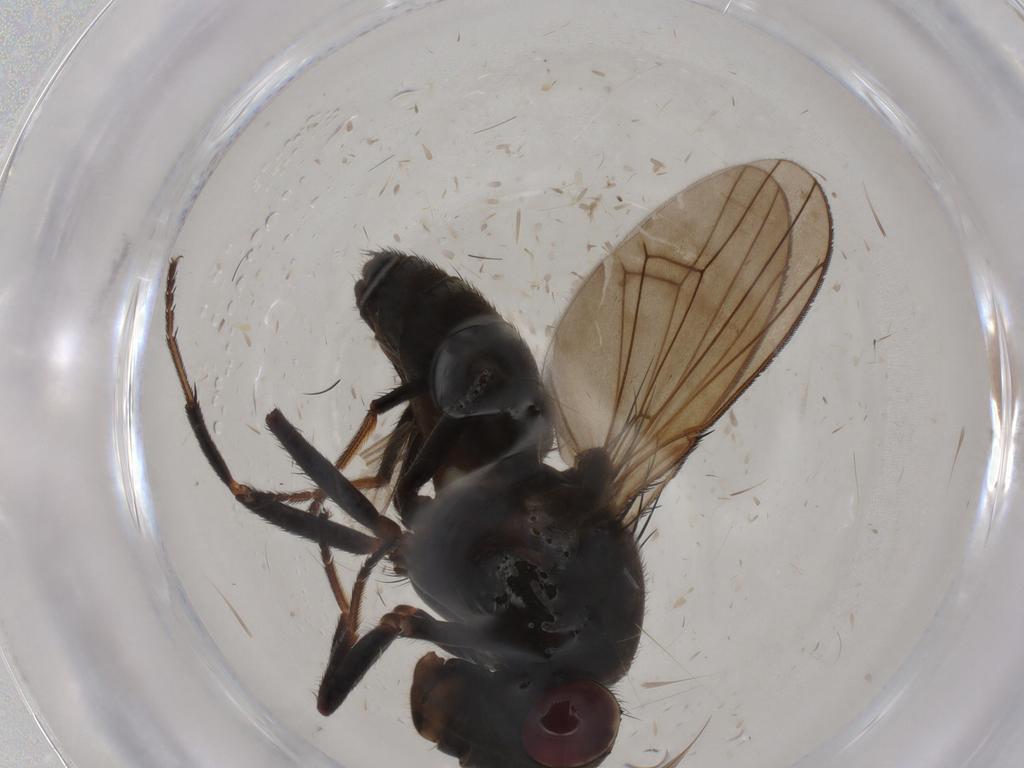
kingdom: Animalia
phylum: Arthropoda
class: Insecta
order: Diptera
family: Ephydridae
